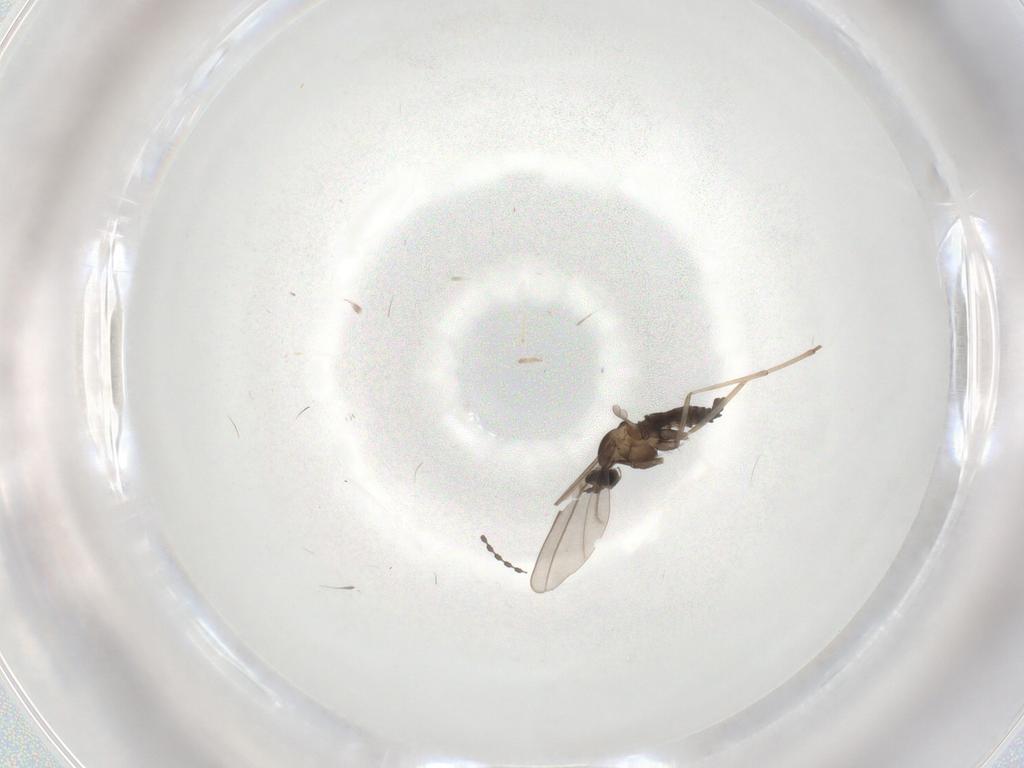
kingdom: Animalia
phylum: Arthropoda
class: Insecta
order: Diptera
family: Cecidomyiidae
